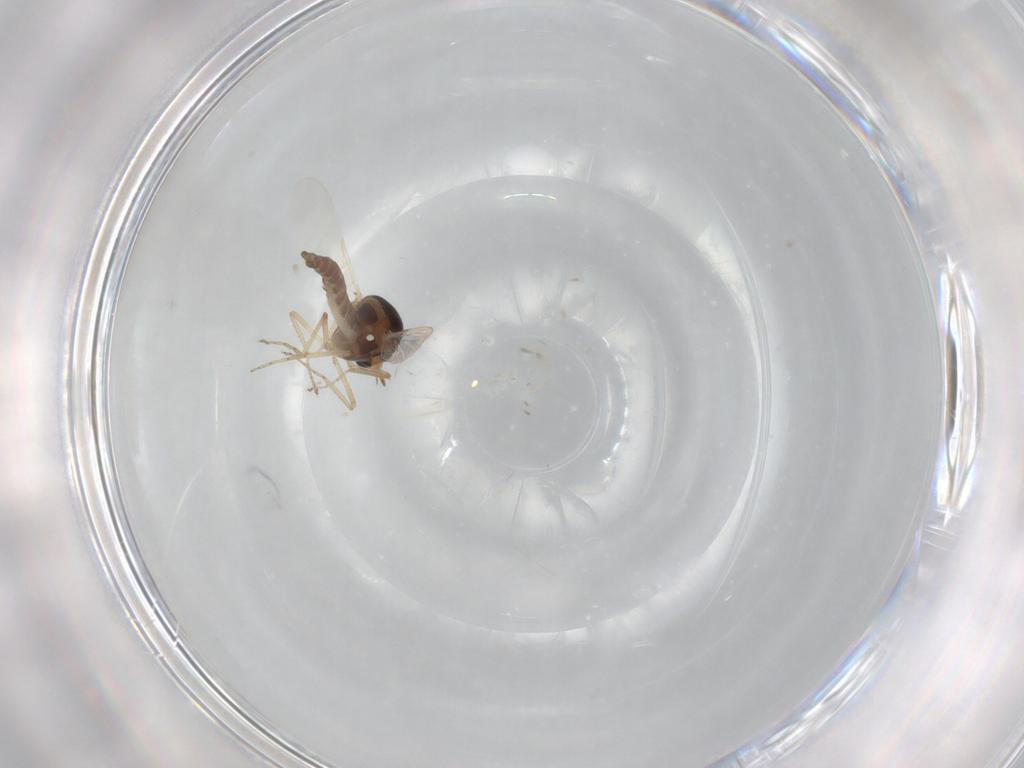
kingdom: Animalia
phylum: Arthropoda
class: Insecta
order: Diptera
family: Ceratopogonidae
